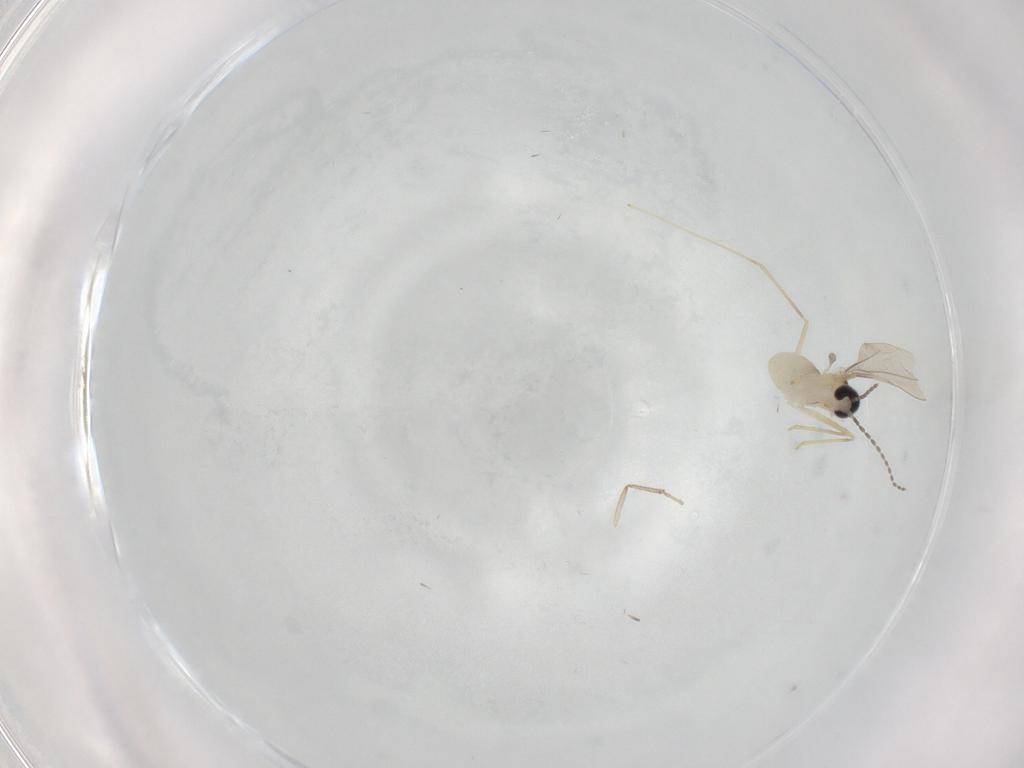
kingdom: Animalia
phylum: Arthropoda
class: Insecta
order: Diptera
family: Cecidomyiidae
